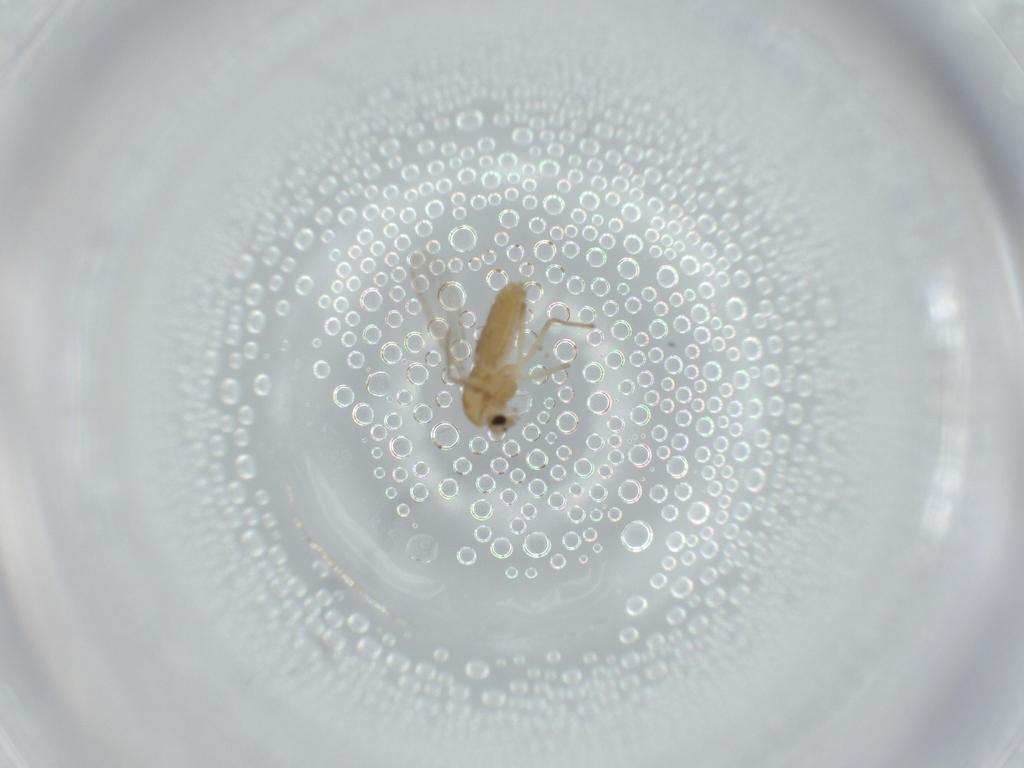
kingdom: Animalia
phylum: Arthropoda
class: Insecta
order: Diptera
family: Chironomidae
